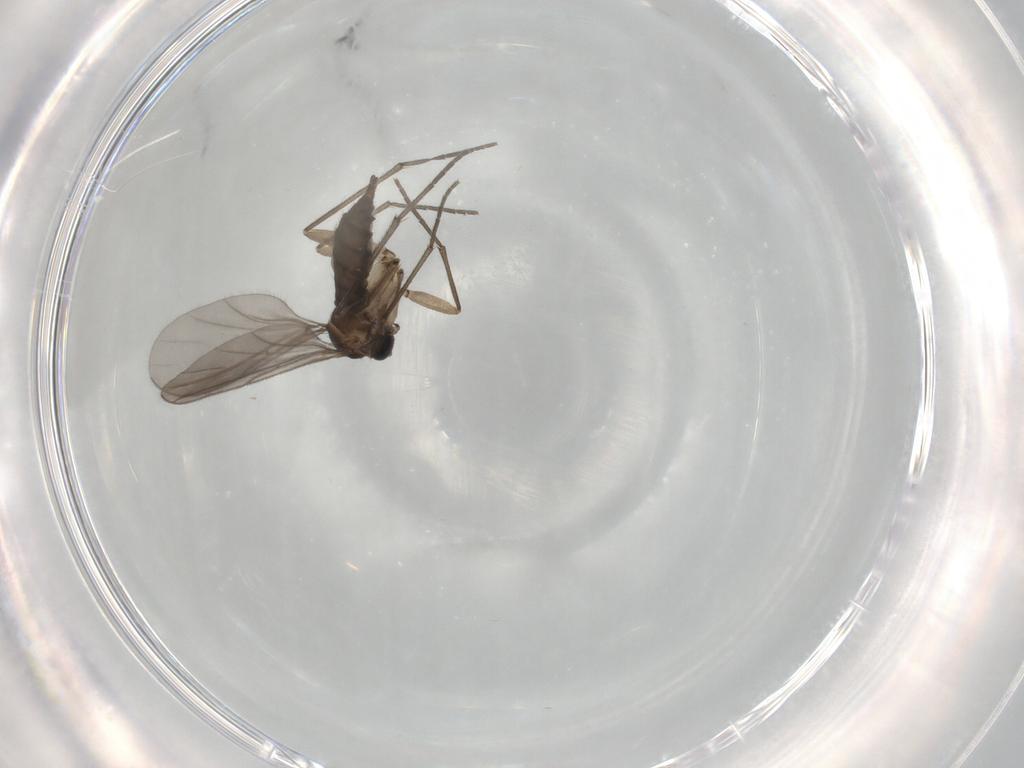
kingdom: Animalia
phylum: Arthropoda
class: Insecta
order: Diptera
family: Sciaridae
